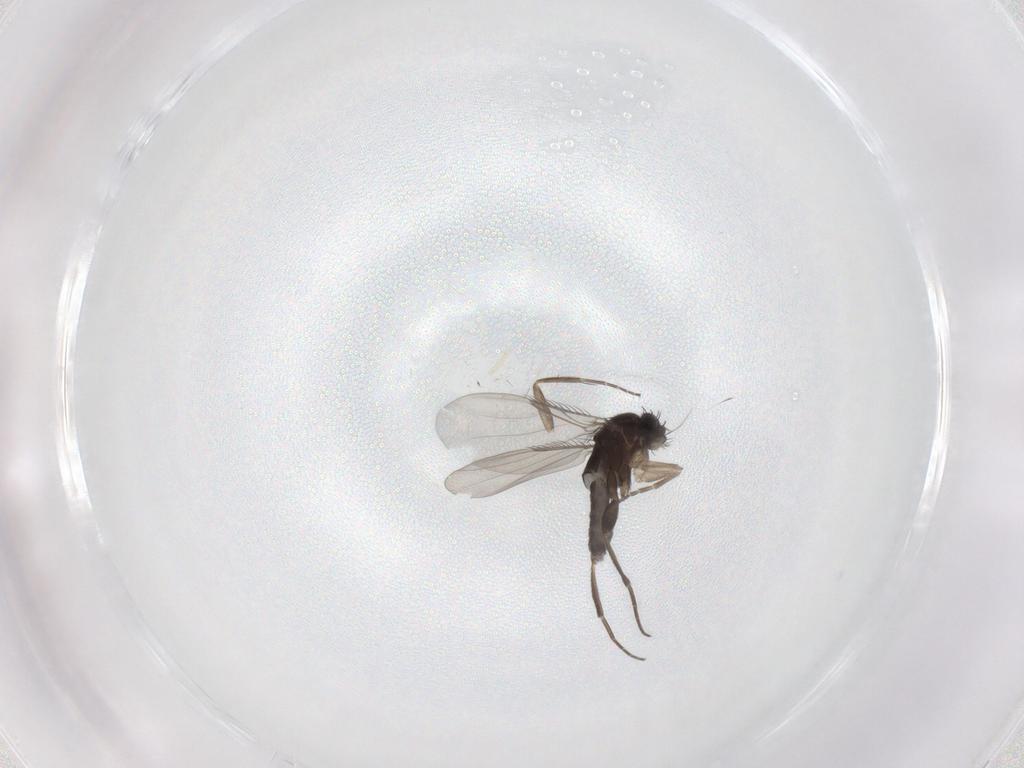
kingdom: Animalia
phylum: Arthropoda
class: Insecta
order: Diptera
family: Phoridae
